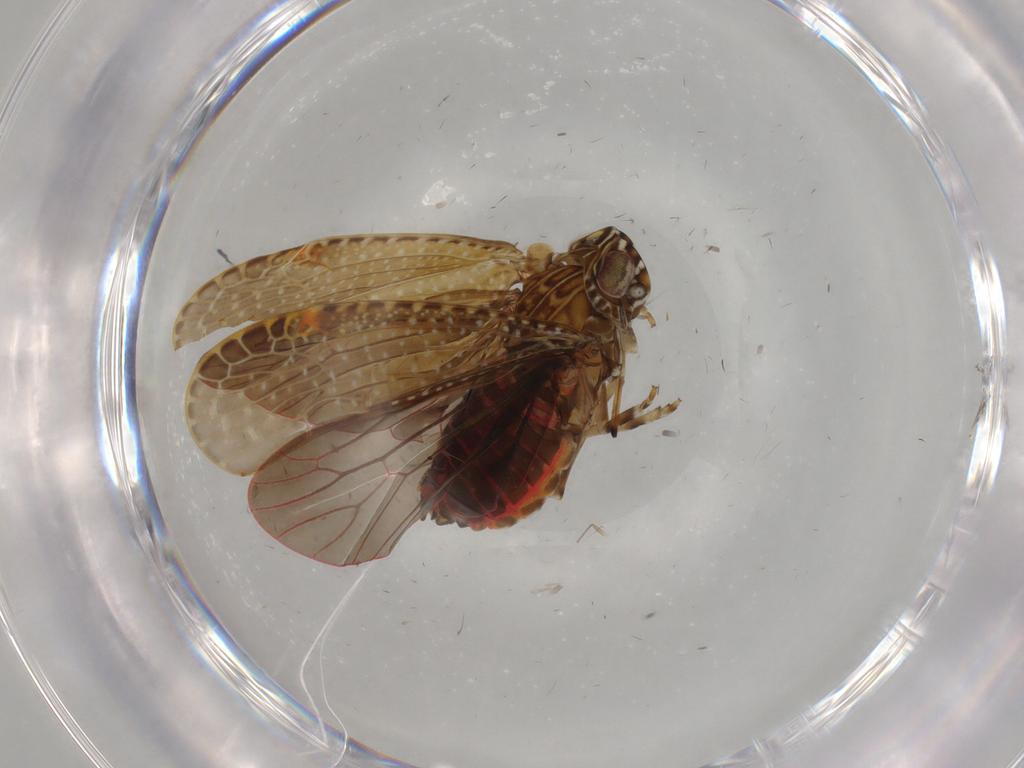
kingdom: Animalia
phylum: Arthropoda
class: Insecta
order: Hemiptera
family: Achilidae
